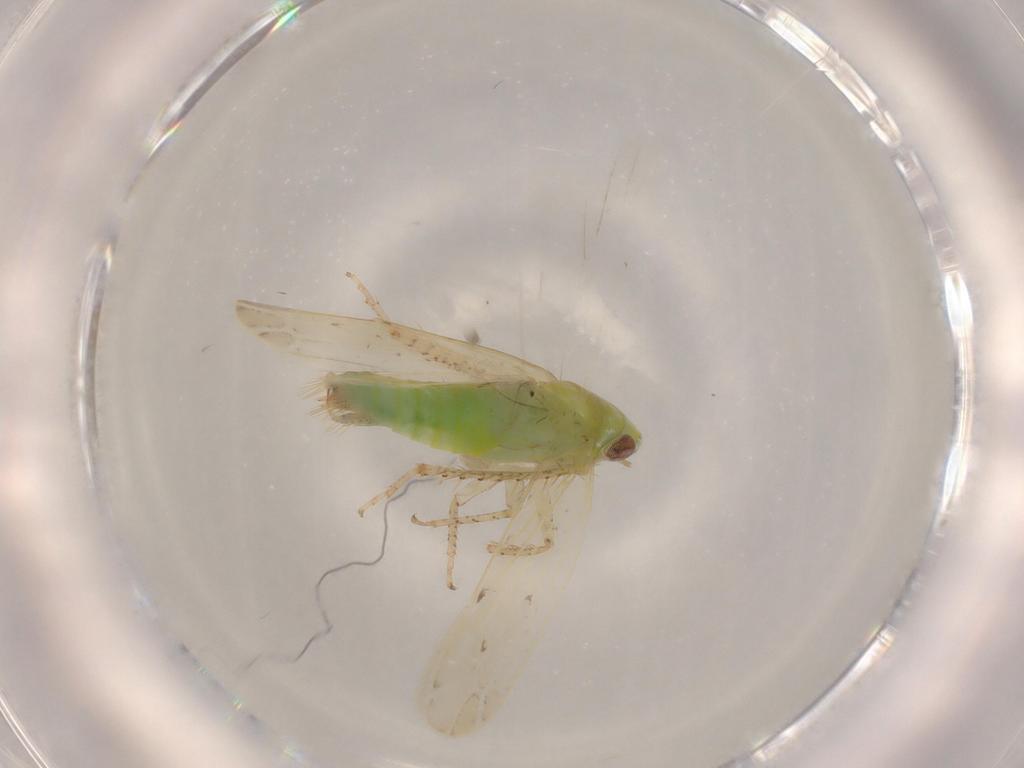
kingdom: Animalia
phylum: Arthropoda
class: Insecta
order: Hemiptera
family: Cicadellidae
